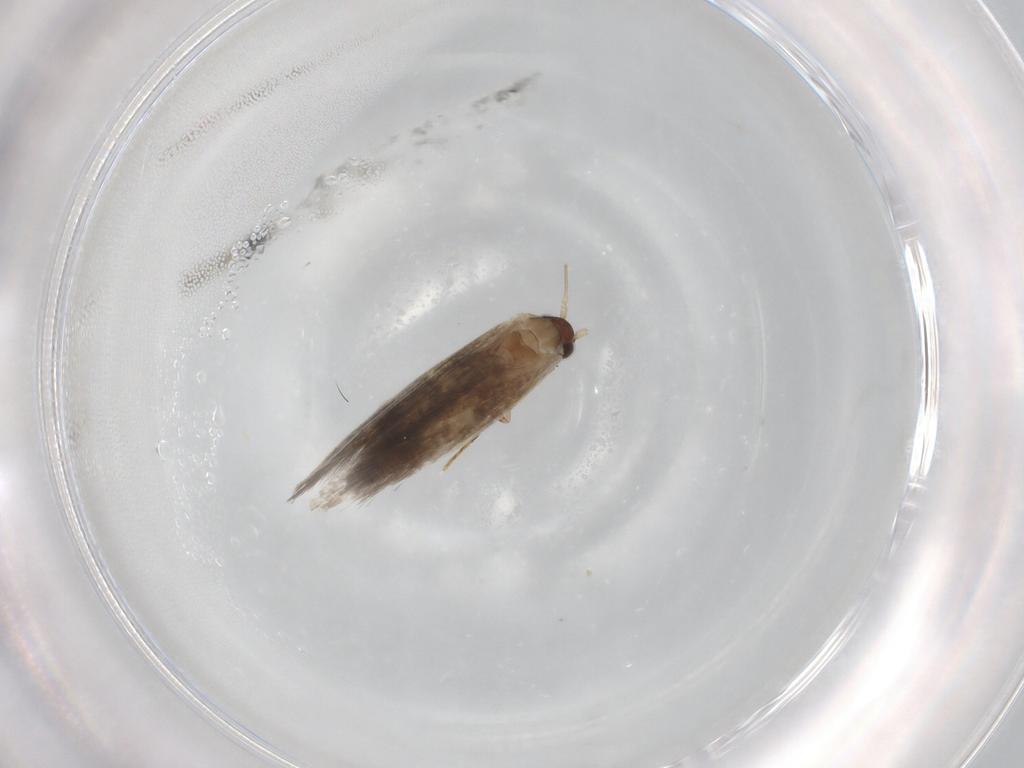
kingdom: Animalia
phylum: Arthropoda
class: Insecta
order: Lepidoptera
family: Tineidae
